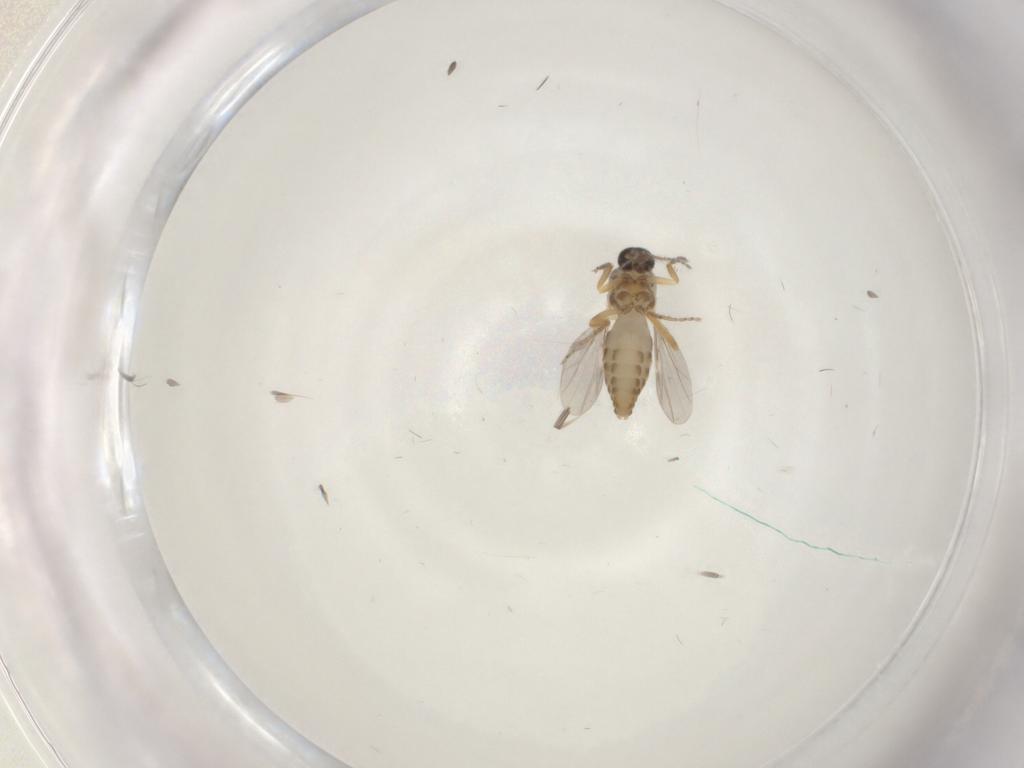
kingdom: Animalia
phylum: Arthropoda
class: Insecta
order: Diptera
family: Ceratopogonidae
